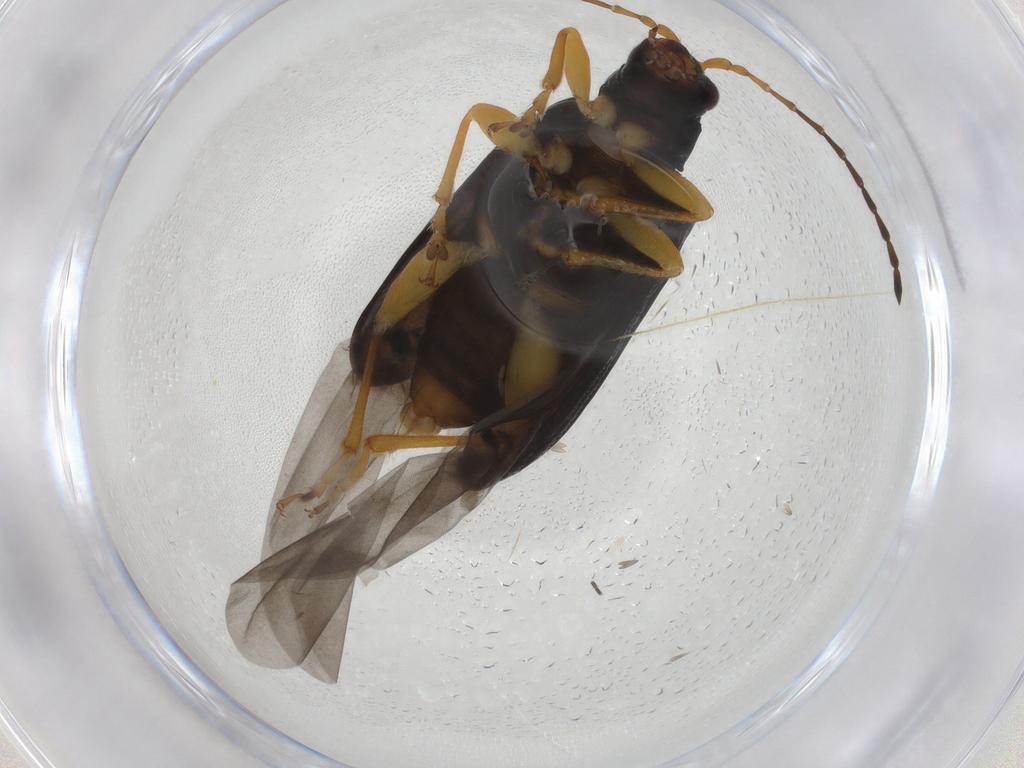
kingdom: Animalia
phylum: Arthropoda
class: Insecta
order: Coleoptera
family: Chrysomelidae
